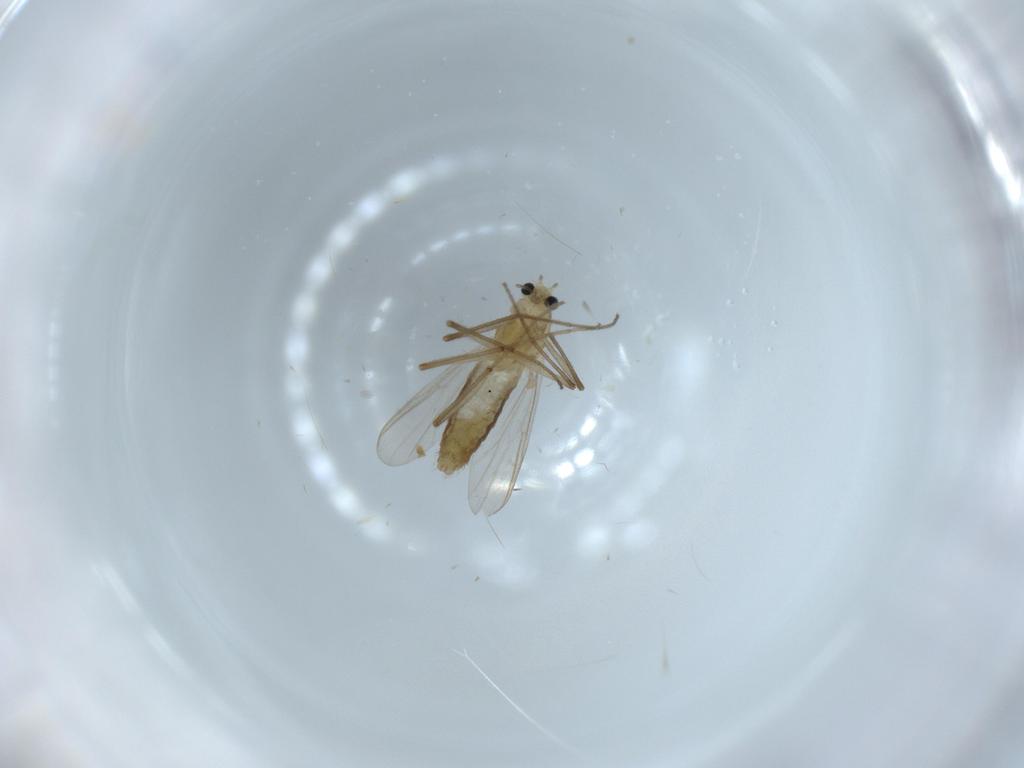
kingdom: Animalia
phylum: Arthropoda
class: Insecta
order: Diptera
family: Chironomidae
